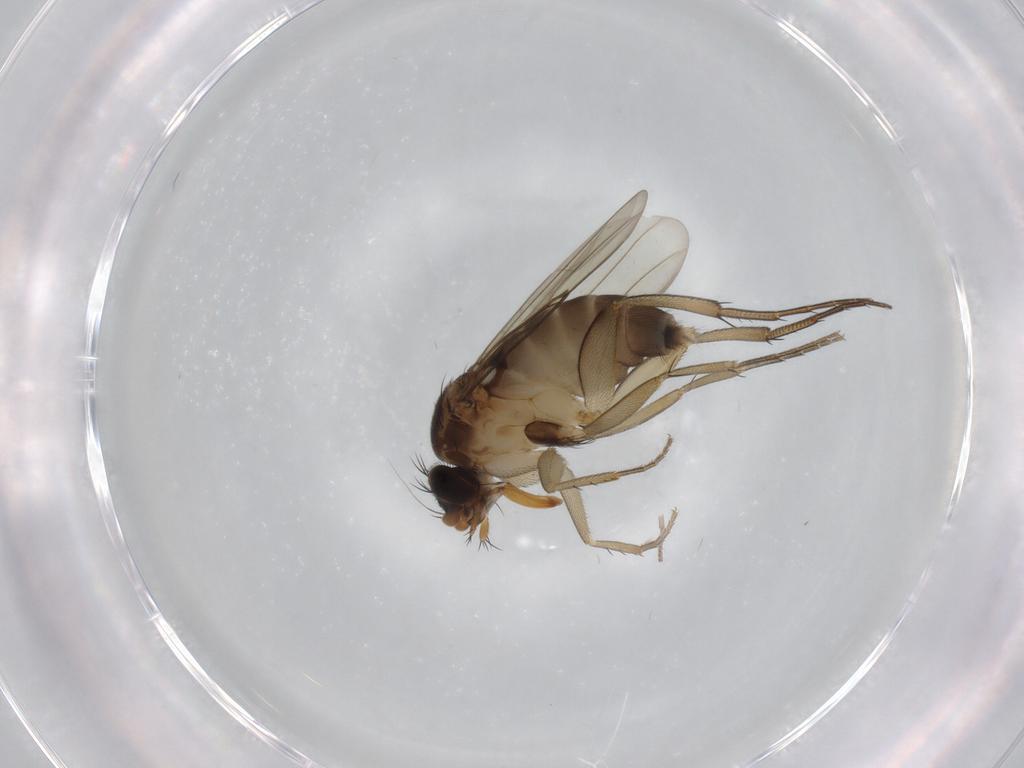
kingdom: Animalia
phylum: Arthropoda
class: Insecta
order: Diptera
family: Phoridae
